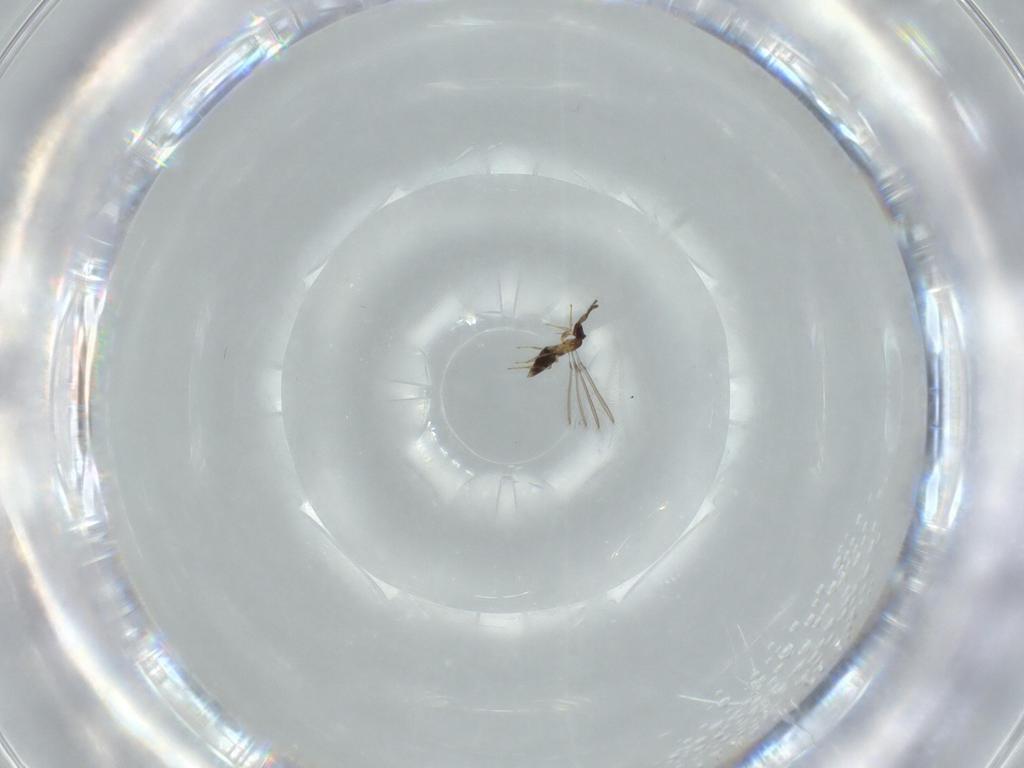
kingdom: Animalia
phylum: Arthropoda
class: Insecta
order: Hymenoptera
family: Mymaridae
